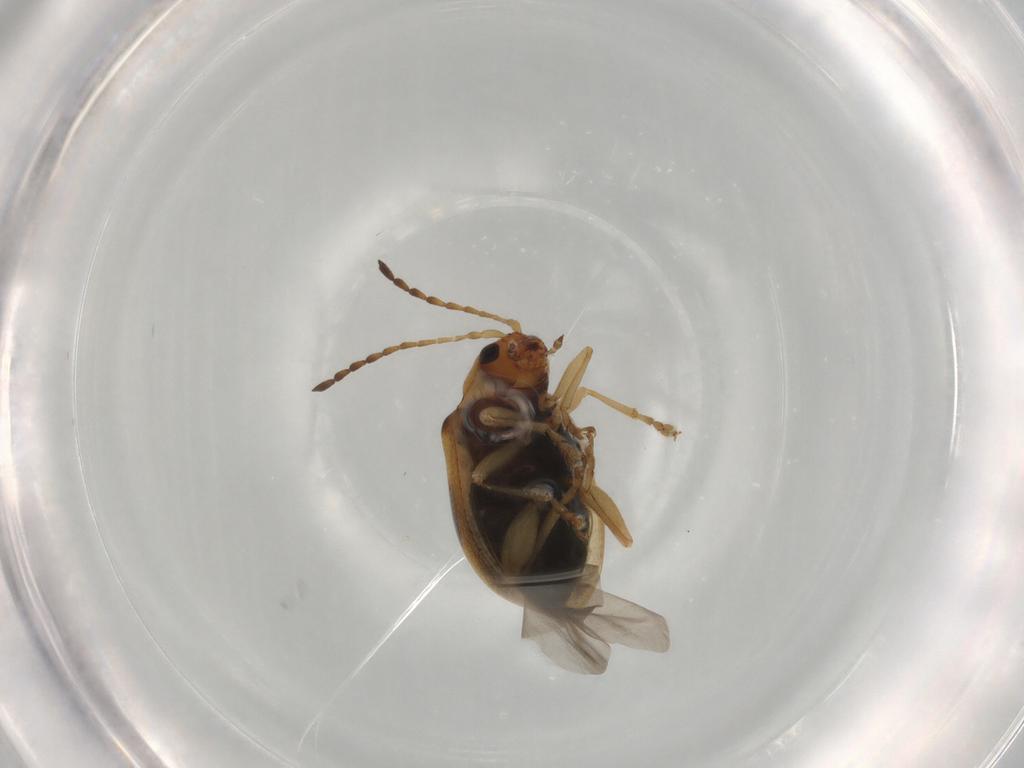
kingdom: Animalia
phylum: Arthropoda
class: Insecta
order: Coleoptera
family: Chrysomelidae
